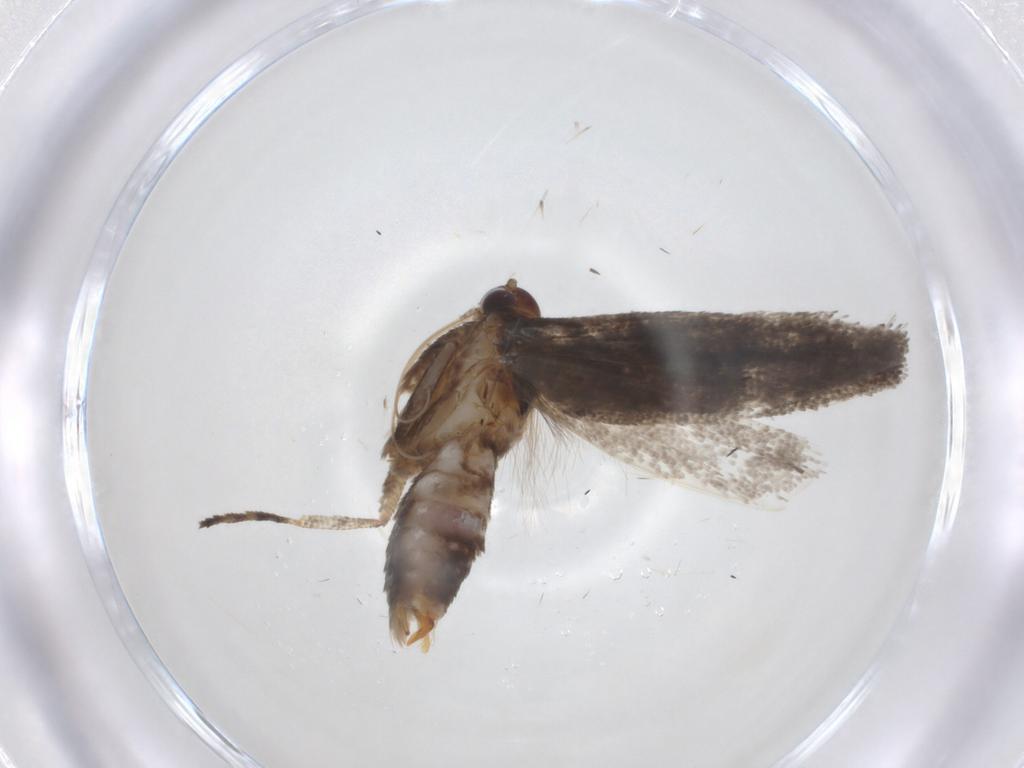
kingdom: Animalia
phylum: Arthropoda
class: Insecta
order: Lepidoptera
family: Gelechiidae
